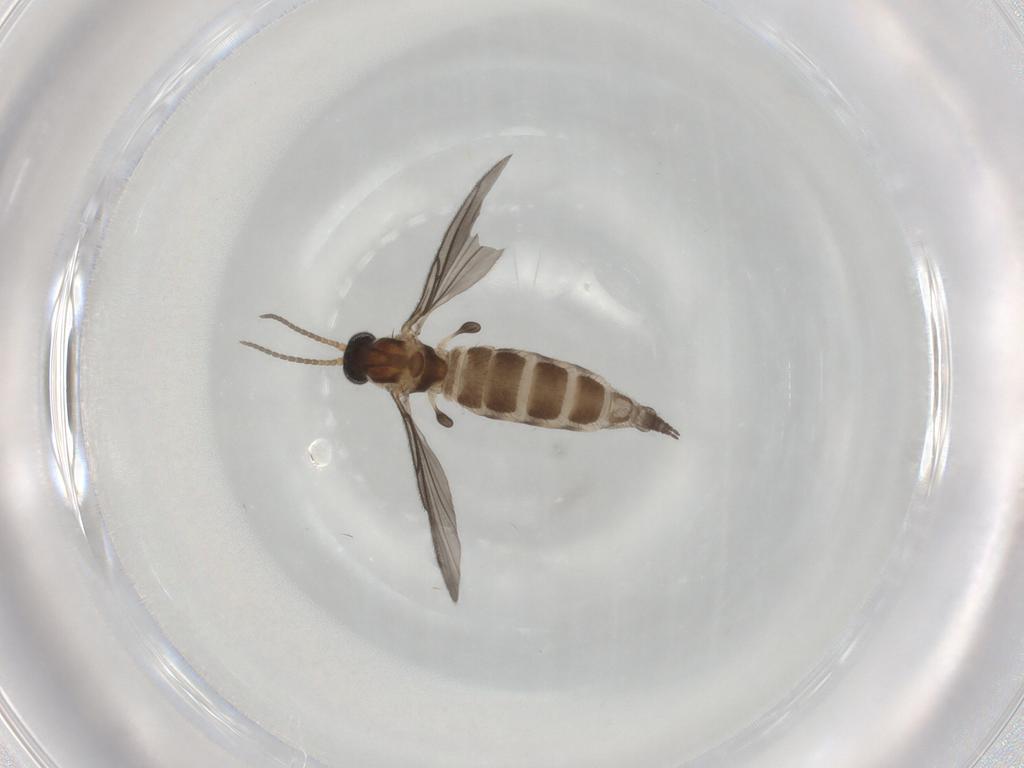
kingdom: Animalia
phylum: Arthropoda
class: Insecta
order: Diptera
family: Sciaridae
